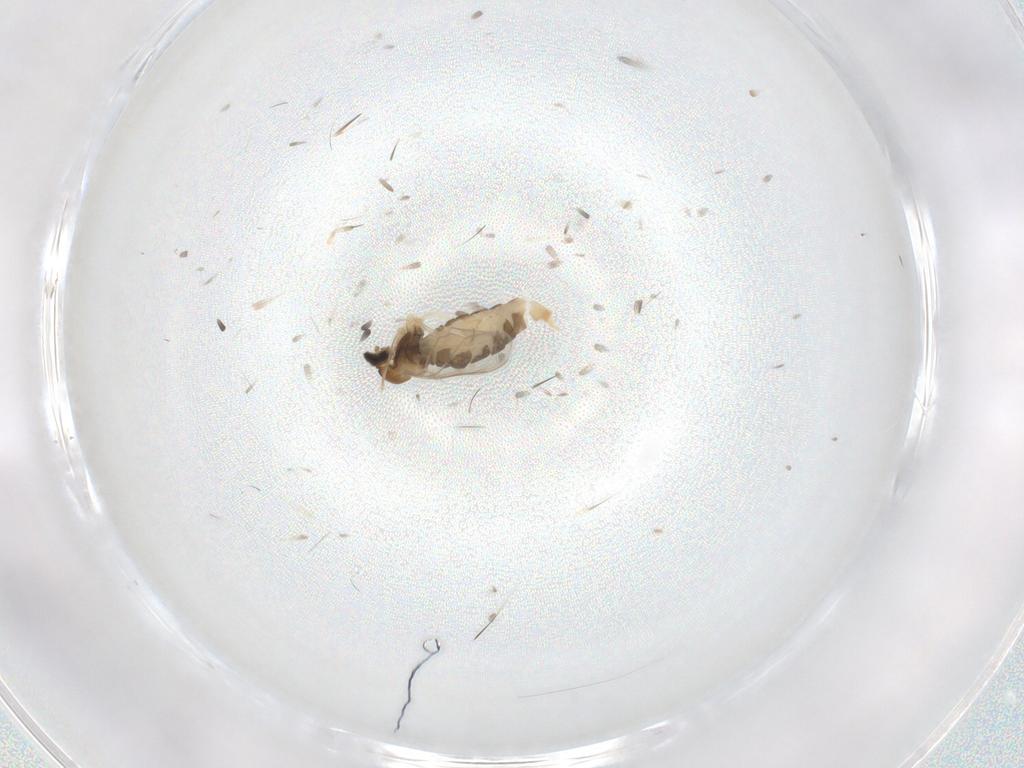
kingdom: Animalia
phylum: Arthropoda
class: Insecta
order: Diptera
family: Cecidomyiidae
